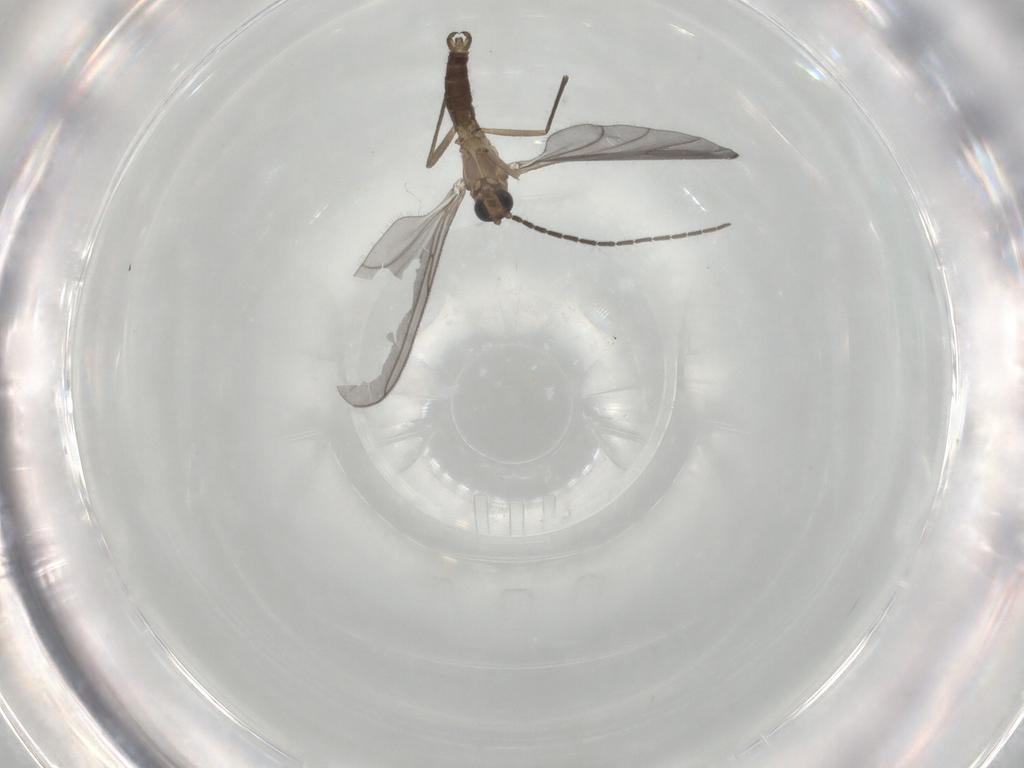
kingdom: Animalia
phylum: Arthropoda
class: Insecta
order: Diptera
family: Sciaridae
